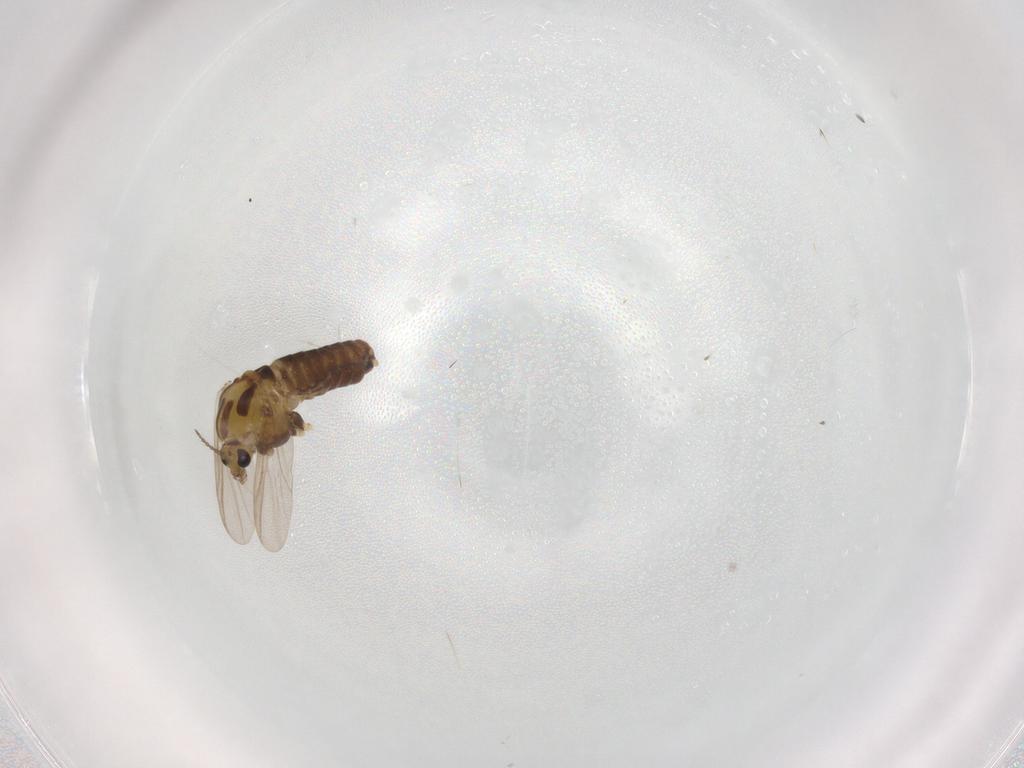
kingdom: Animalia
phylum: Arthropoda
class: Insecta
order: Diptera
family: Chironomidae
